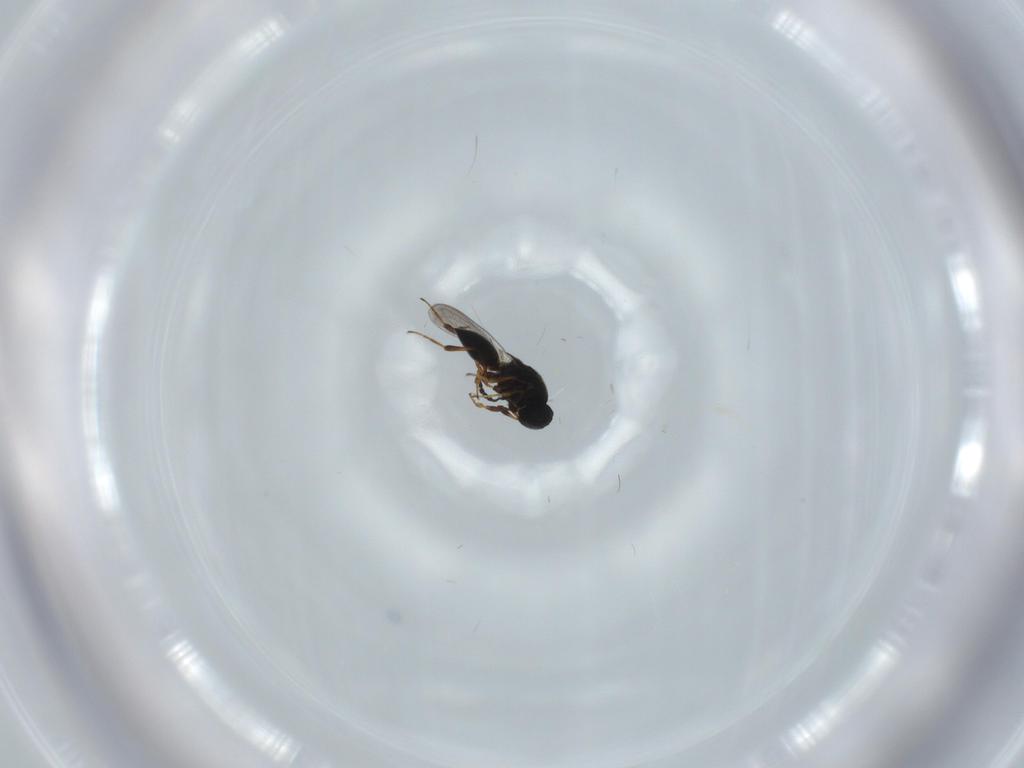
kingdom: Animalia
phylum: Arthropoda
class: Insecta
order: Hymenoptera
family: Platygastridae
